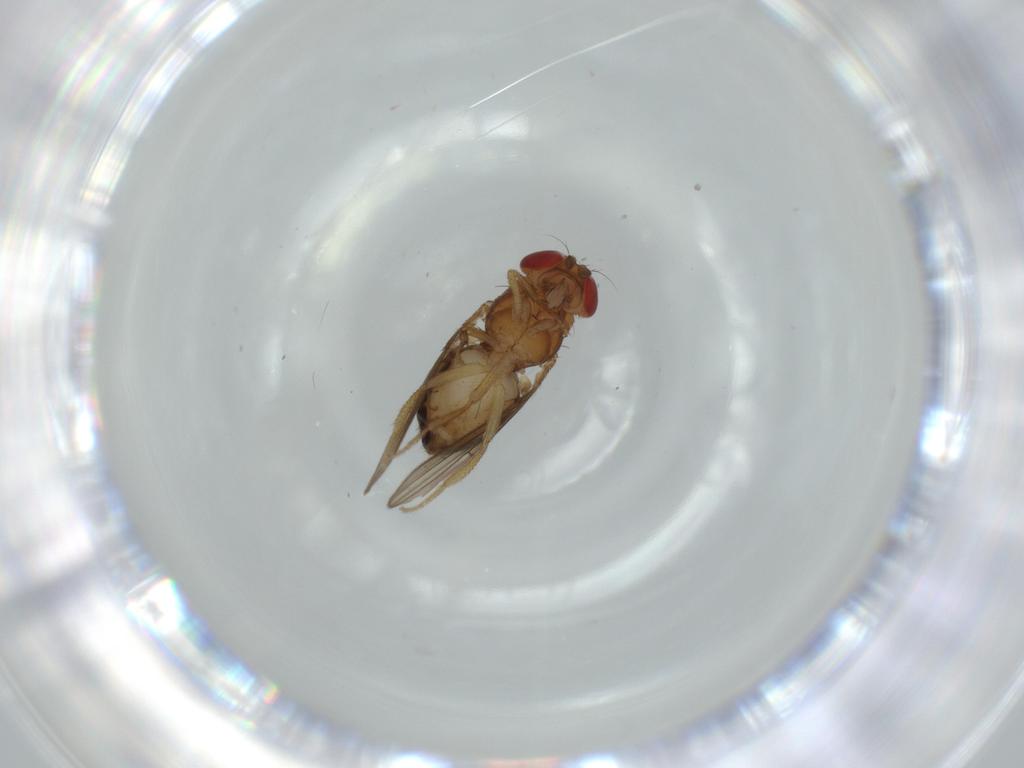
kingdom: Animalia
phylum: Arthropoda
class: Insecta
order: Diptera
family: Drosophilidae
